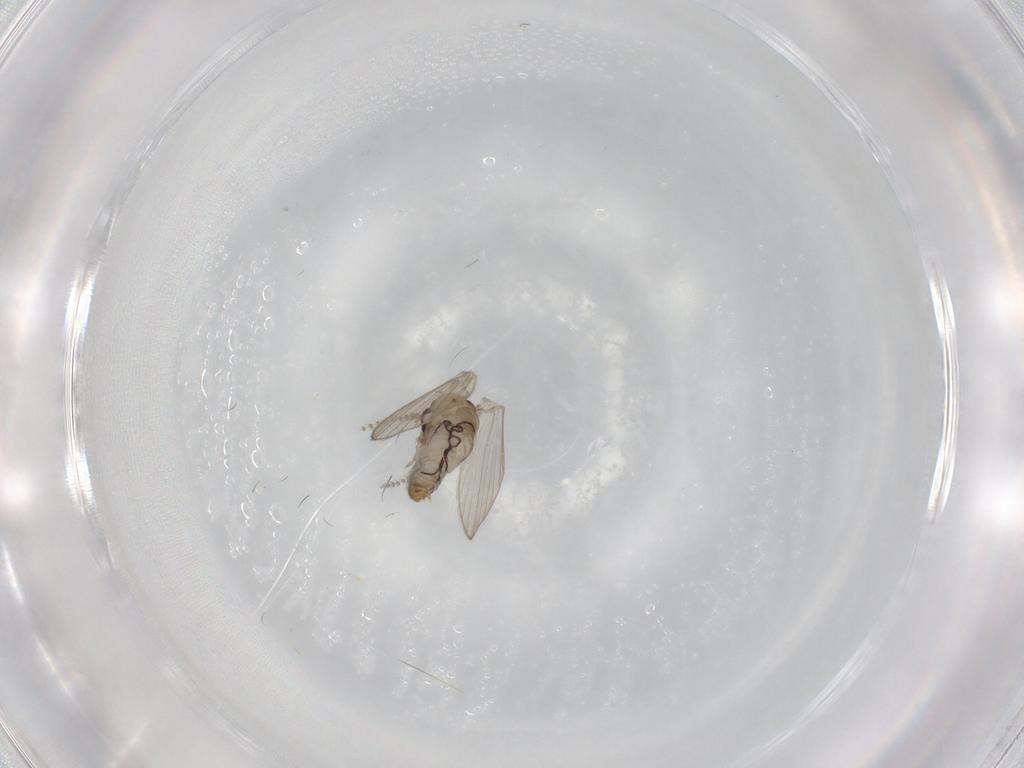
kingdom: Animalia
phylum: Arthropoda
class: Insecta
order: Diptera
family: Psychodidae
